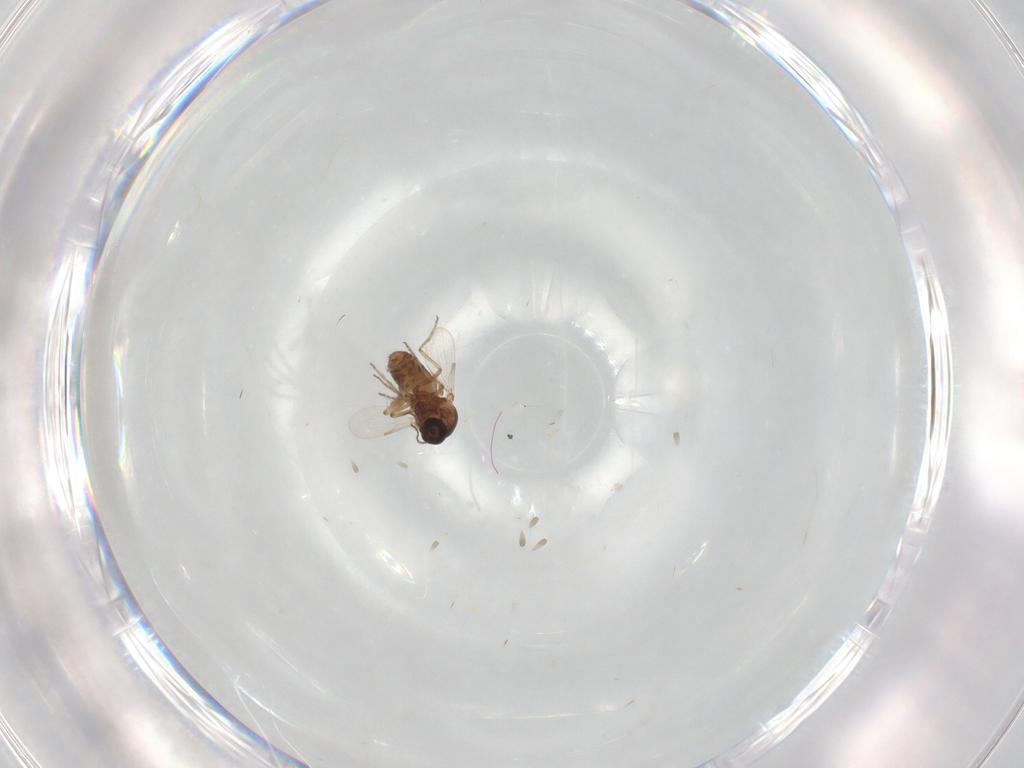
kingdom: Animalia
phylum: Arthropoda
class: Insecta
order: Diptera
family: Ceratopogonidae
